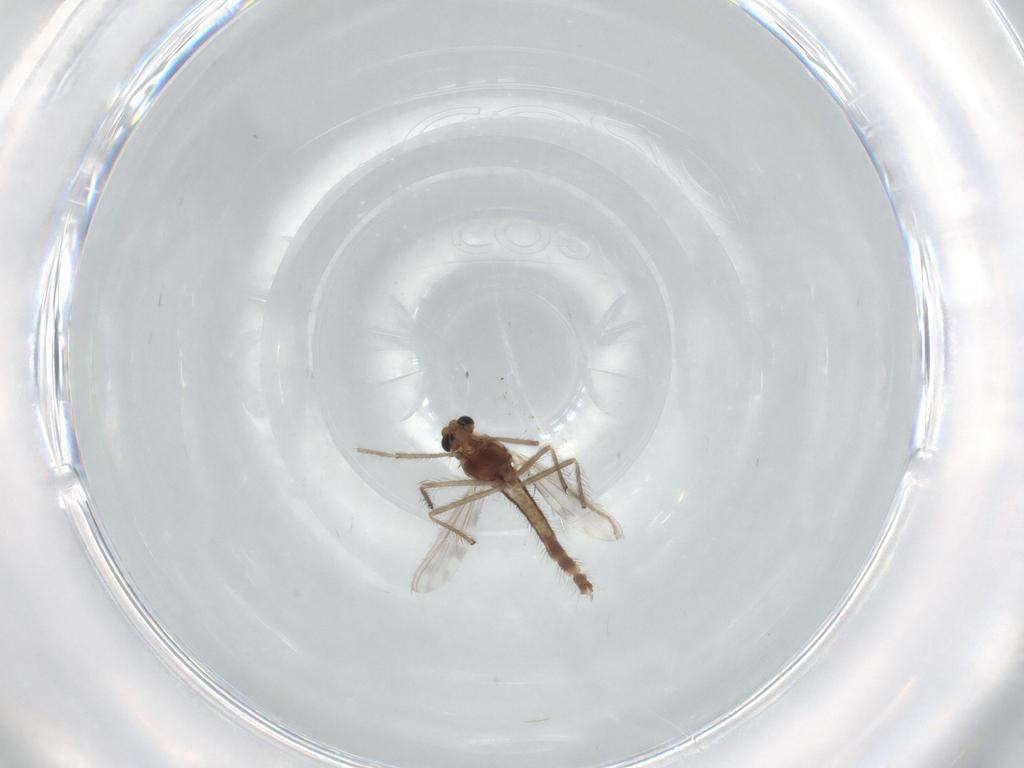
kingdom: Animalia
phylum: Arthropoda
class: Insecta
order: Diptera
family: Chironomidae
